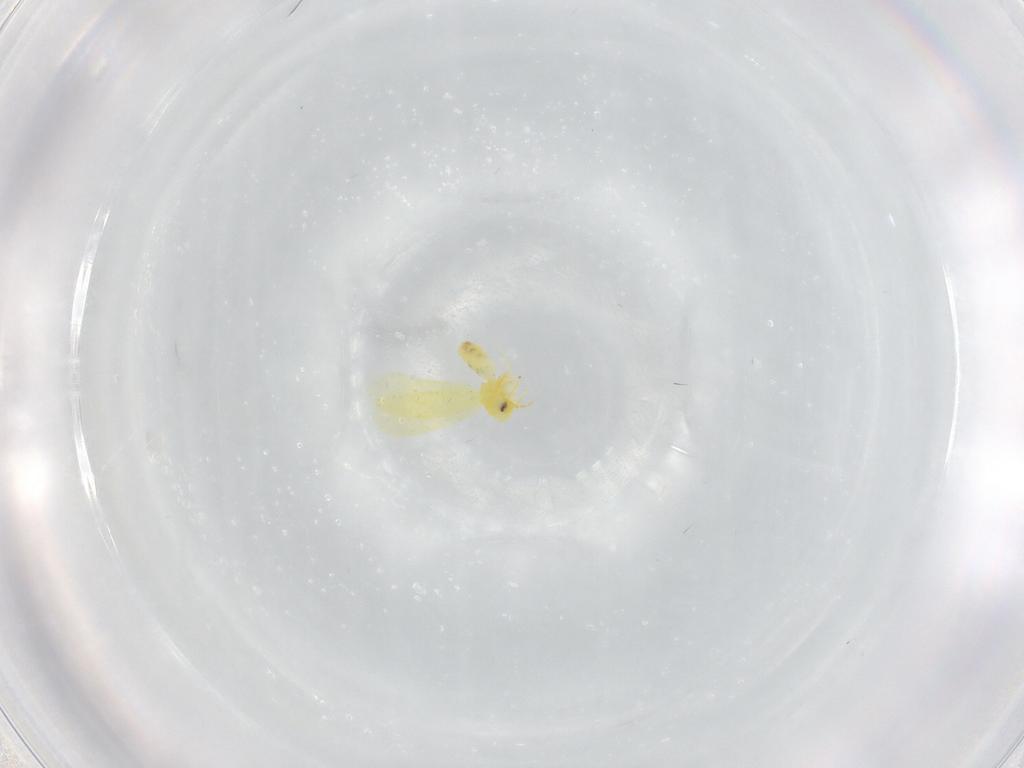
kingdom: Animalia
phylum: Arthropoda
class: Insecta
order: Hemiptera
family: Aleyrodidae
